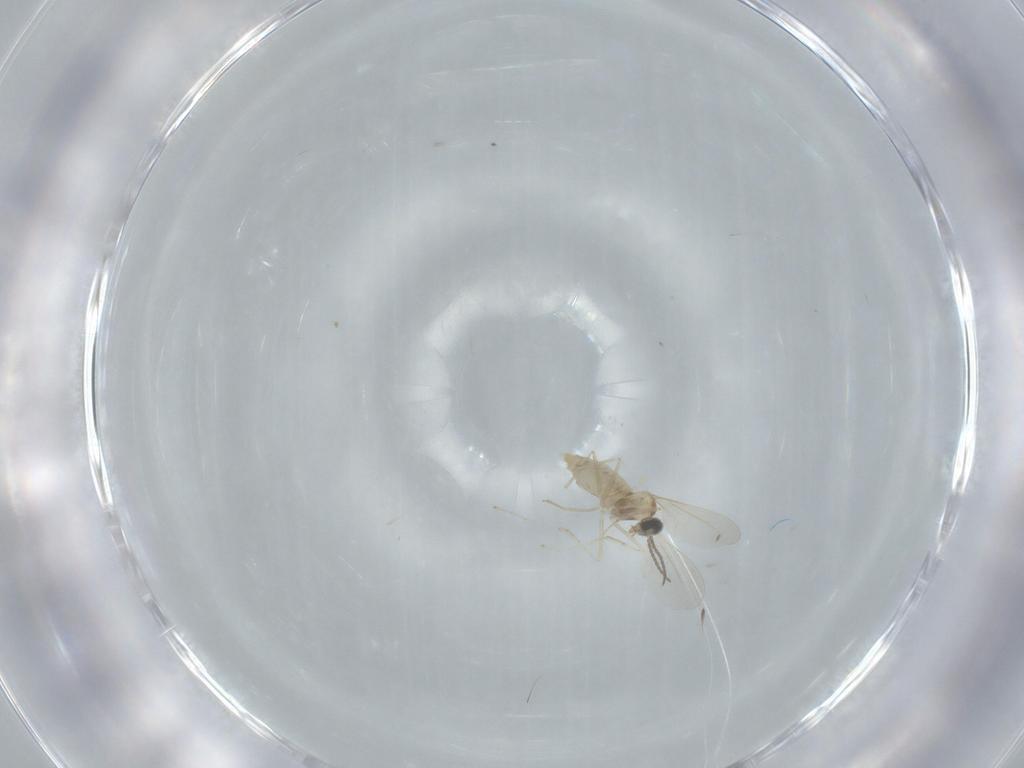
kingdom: Animalia
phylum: Arthropoda
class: Insecta
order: Diptera
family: Cecidomyiidae
